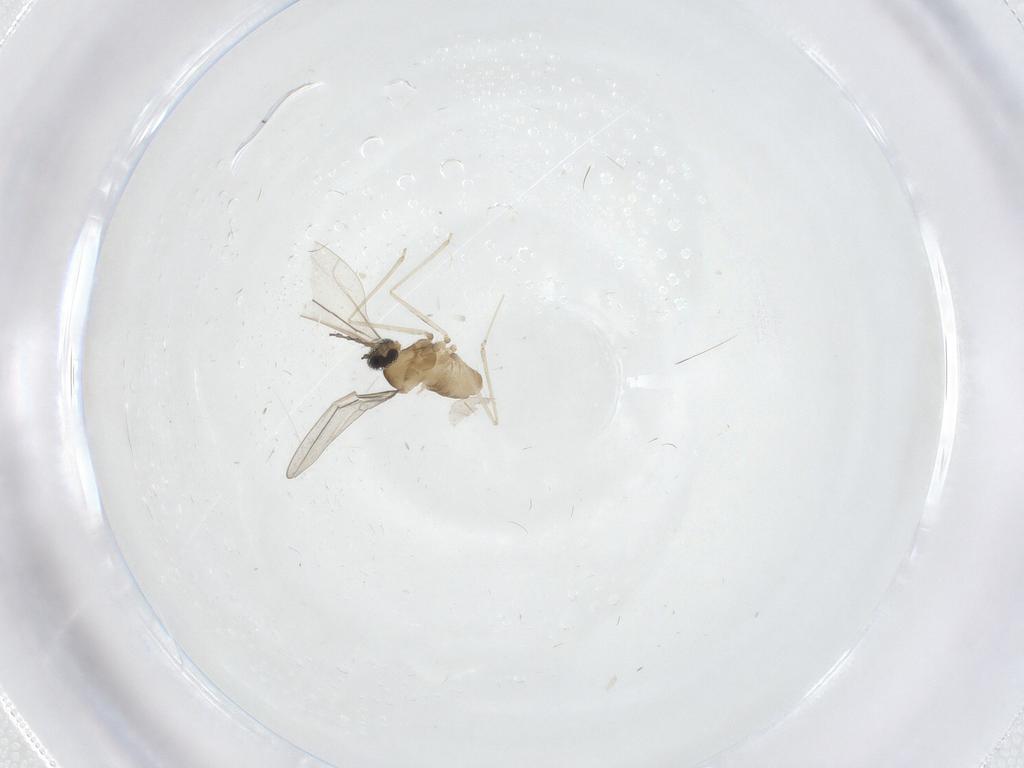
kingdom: Animalia
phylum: Arthropoda
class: Insecta
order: Diptera
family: Cecidomyiidae
